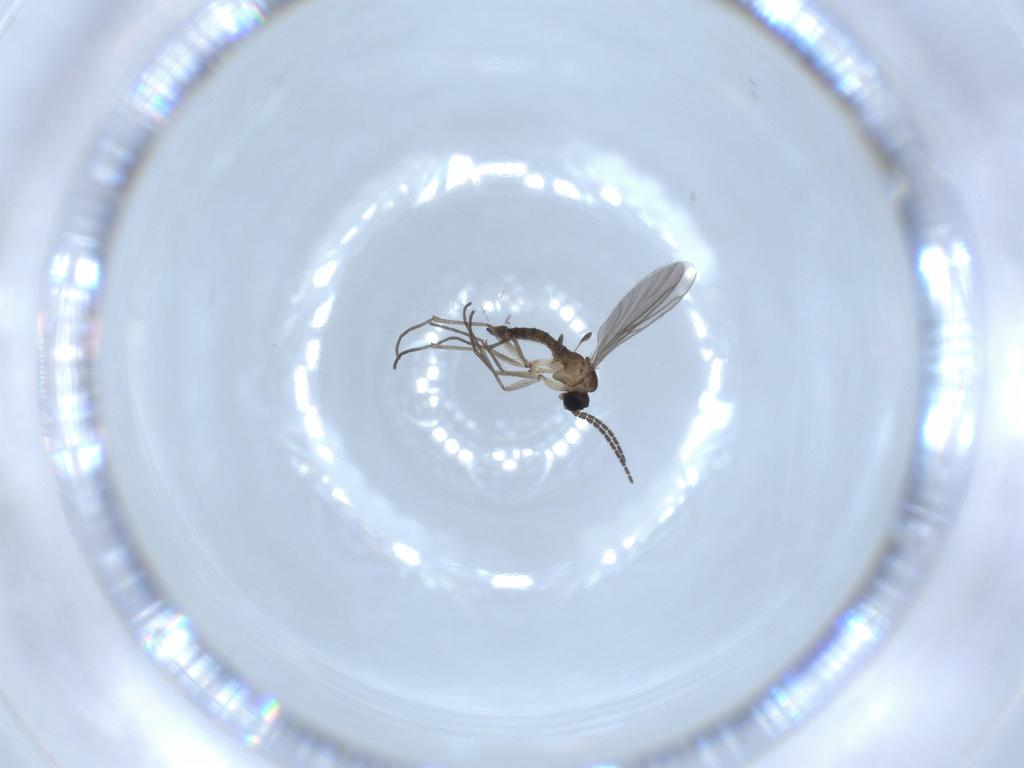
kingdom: Animalia
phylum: Arthropoda
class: Insecta
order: Diptera
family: Sciaridae
